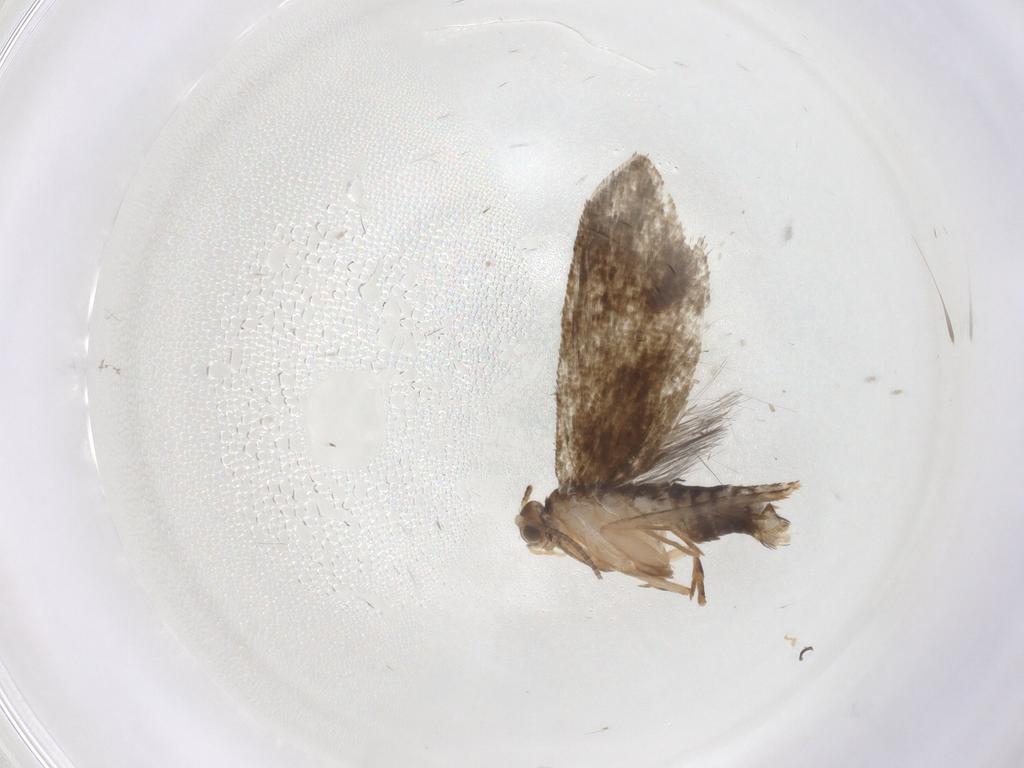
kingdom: Animalia
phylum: Arthropoda
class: Insecta
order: Lepidoptera
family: Tineidae
